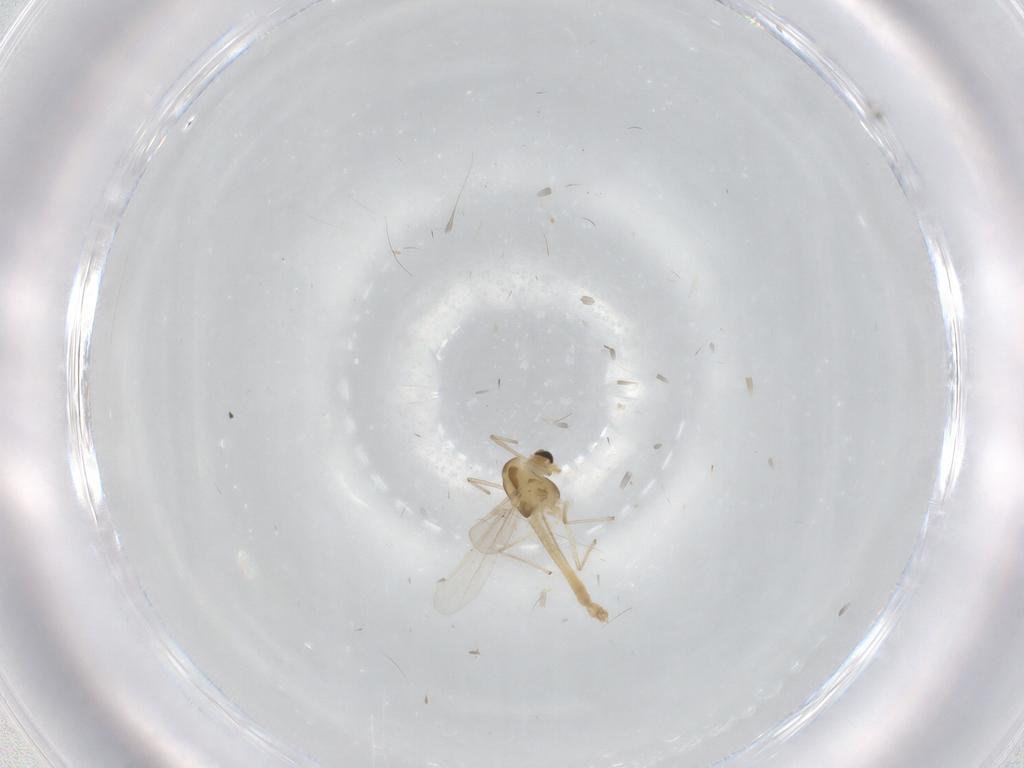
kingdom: Animalia
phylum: Arthropoda
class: Insecta
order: Diptera
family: Chironomidae
